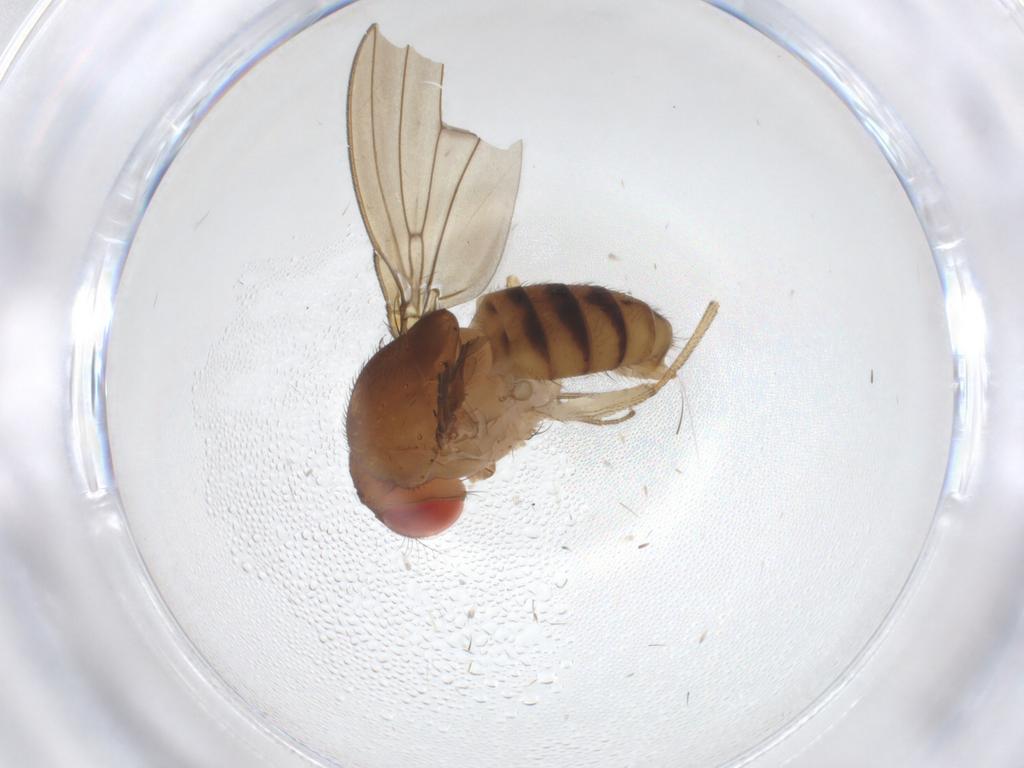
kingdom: Animalia
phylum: Arthropoda
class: Insecta
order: Diptera
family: Drosophilidae
